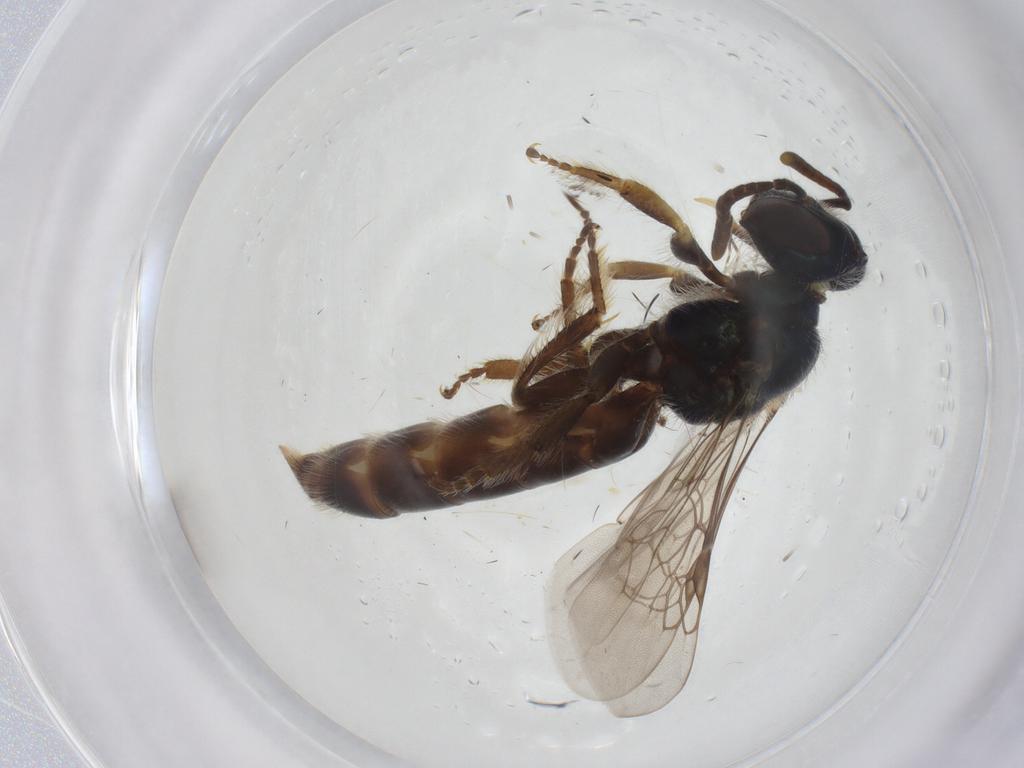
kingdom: Animalia
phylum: Arthropoda
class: Insecta
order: Hymenoptera
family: Andrenidae
